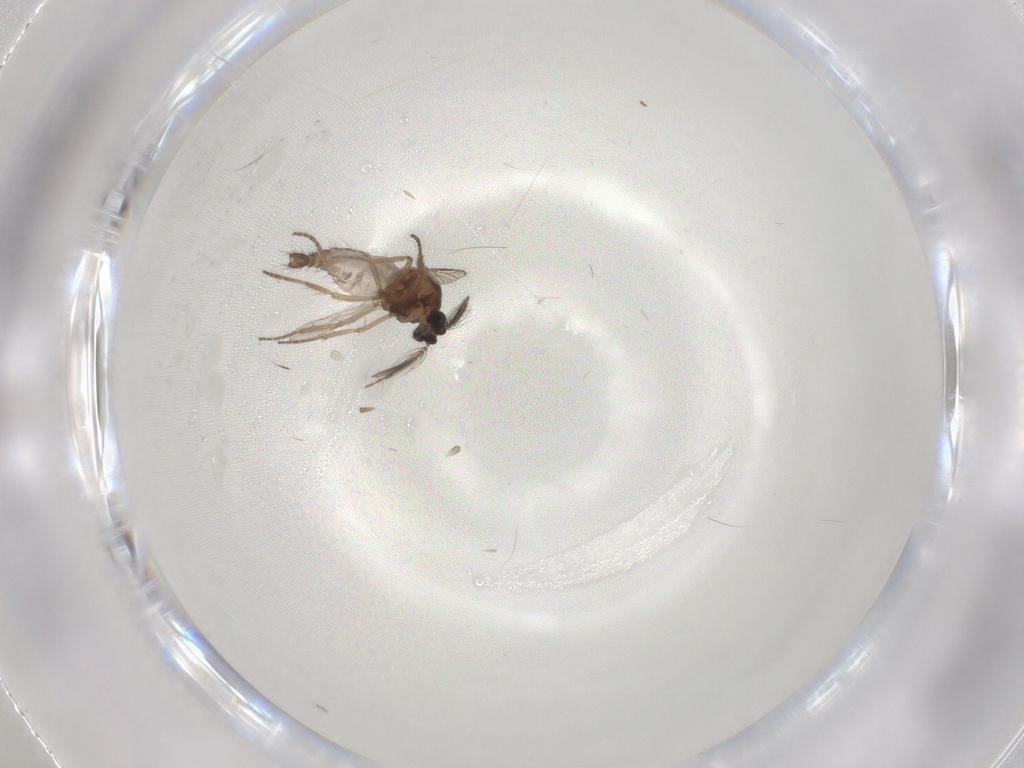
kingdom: Animalia
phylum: Arthropoda
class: Insecta
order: Diptera
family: Cecidomyiidae
